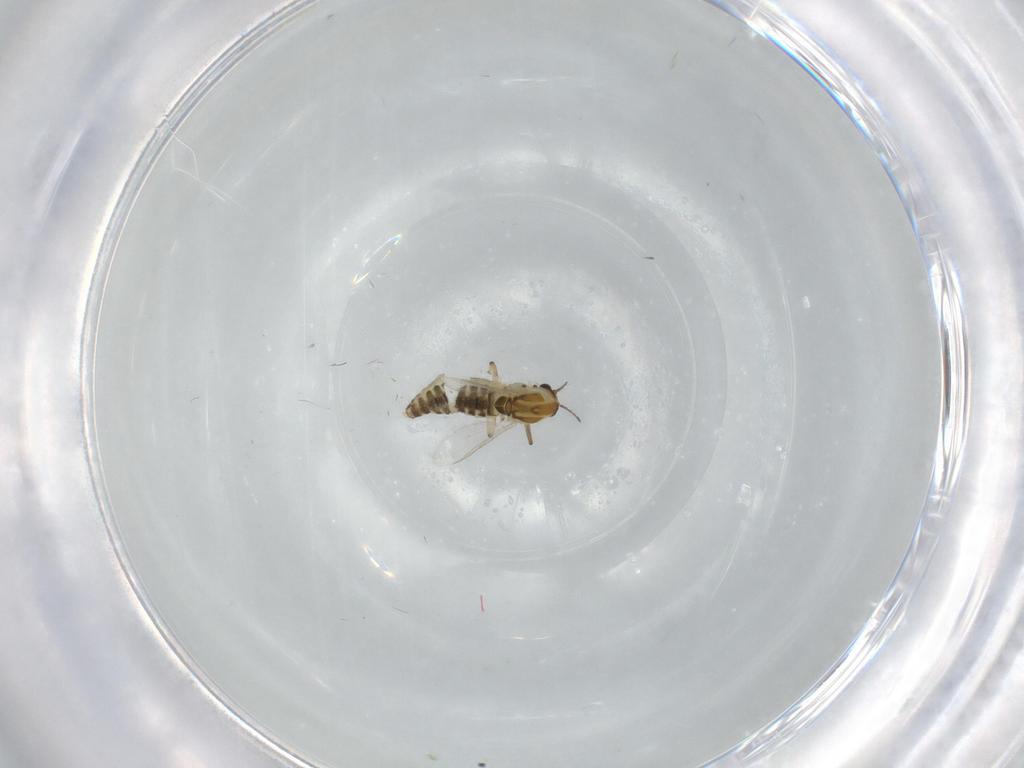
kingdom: Animalia
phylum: Arthropoda
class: Insecta
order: Diptera
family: Chironomidae
